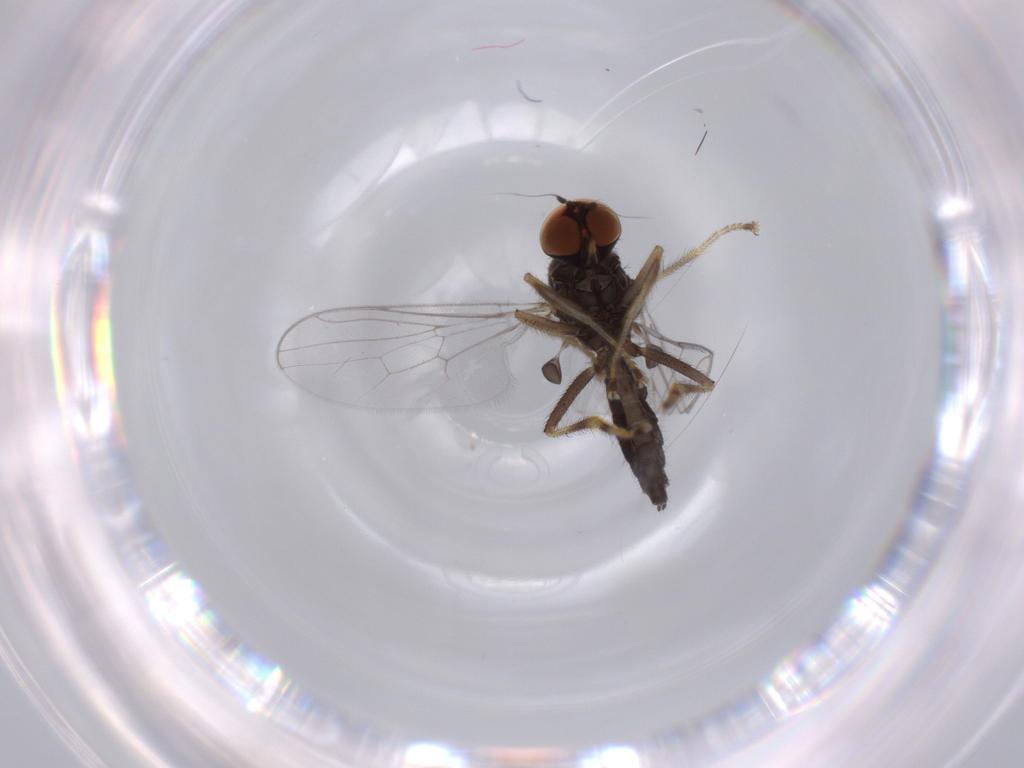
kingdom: Animalia
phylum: Arthropoda
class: Insecta
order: Diptera
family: Hybotidae
